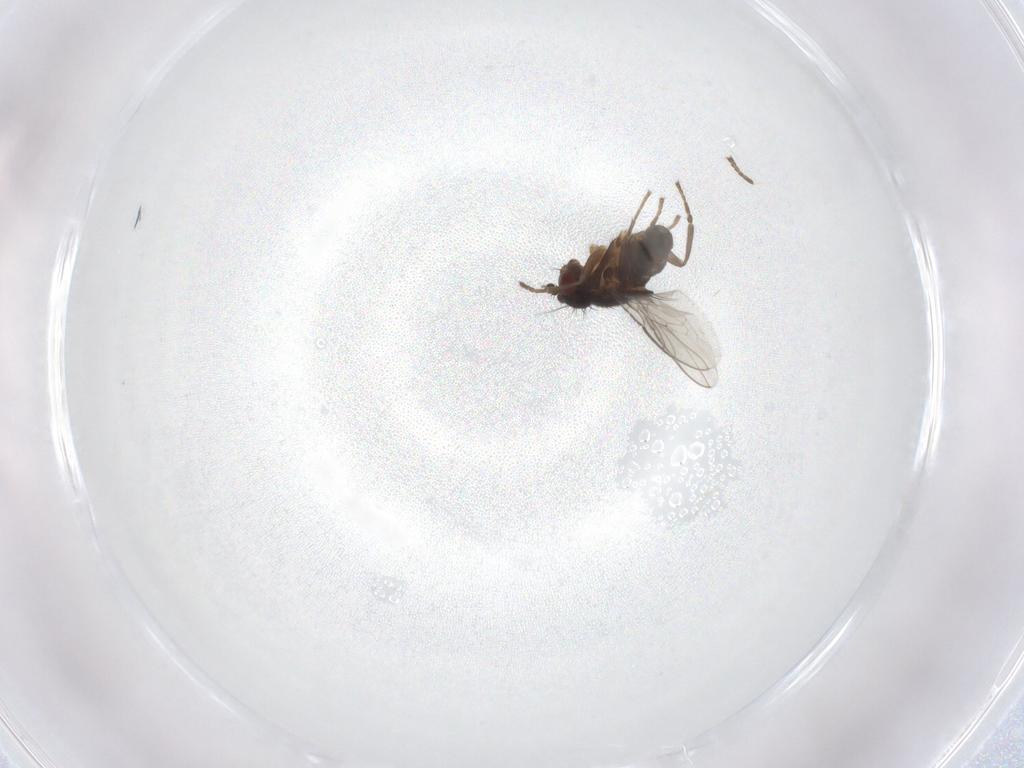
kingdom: Animalia
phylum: Arthropoda
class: Insecta
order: Diptera
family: Sphaeroceridae
